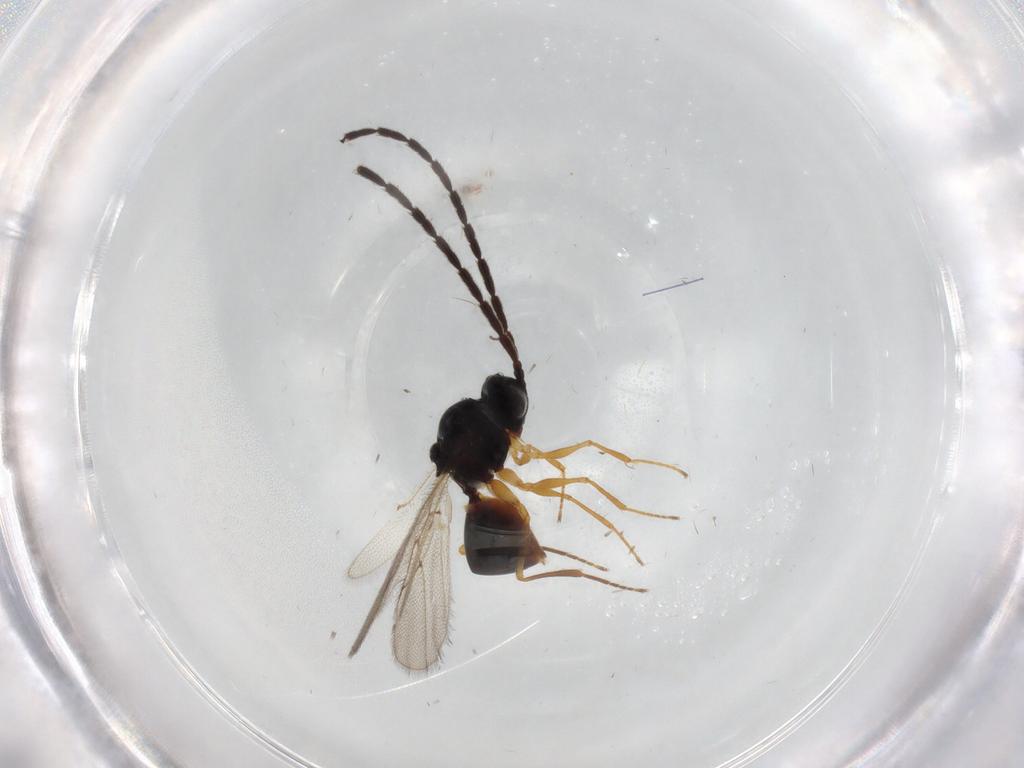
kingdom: Animalia
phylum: Arthropoda
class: Insecta
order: Hymenoptera
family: Figitidae
